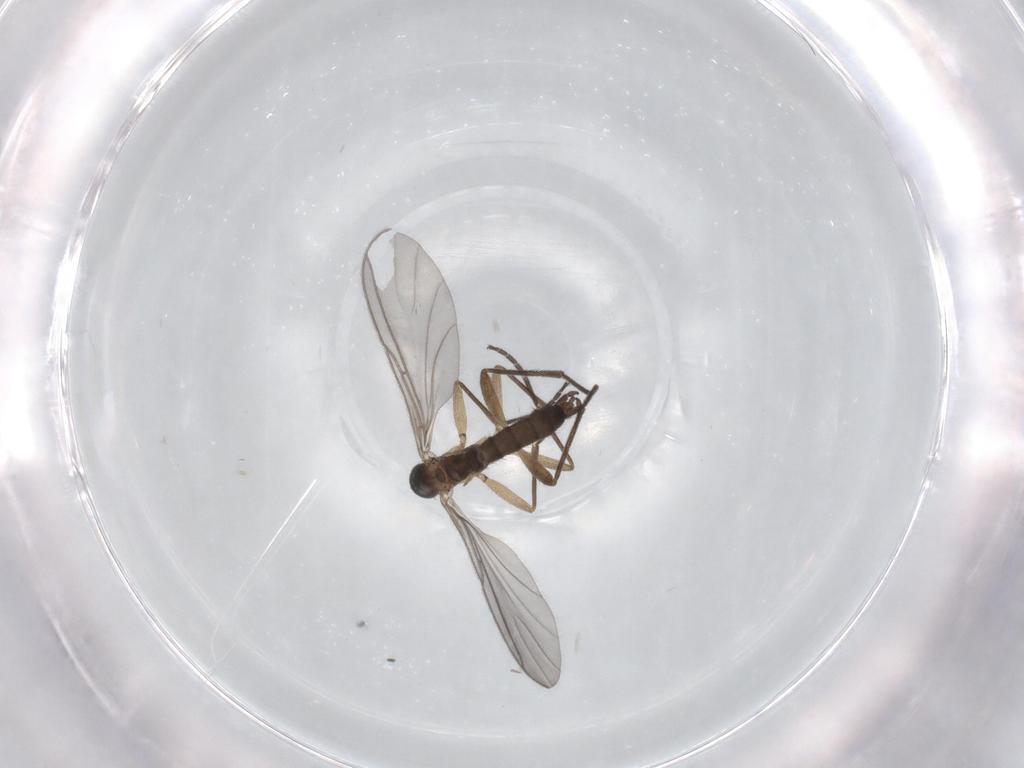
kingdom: Animalia
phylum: Arthropoda
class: Insecta
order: Diptera
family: Sciaridae
